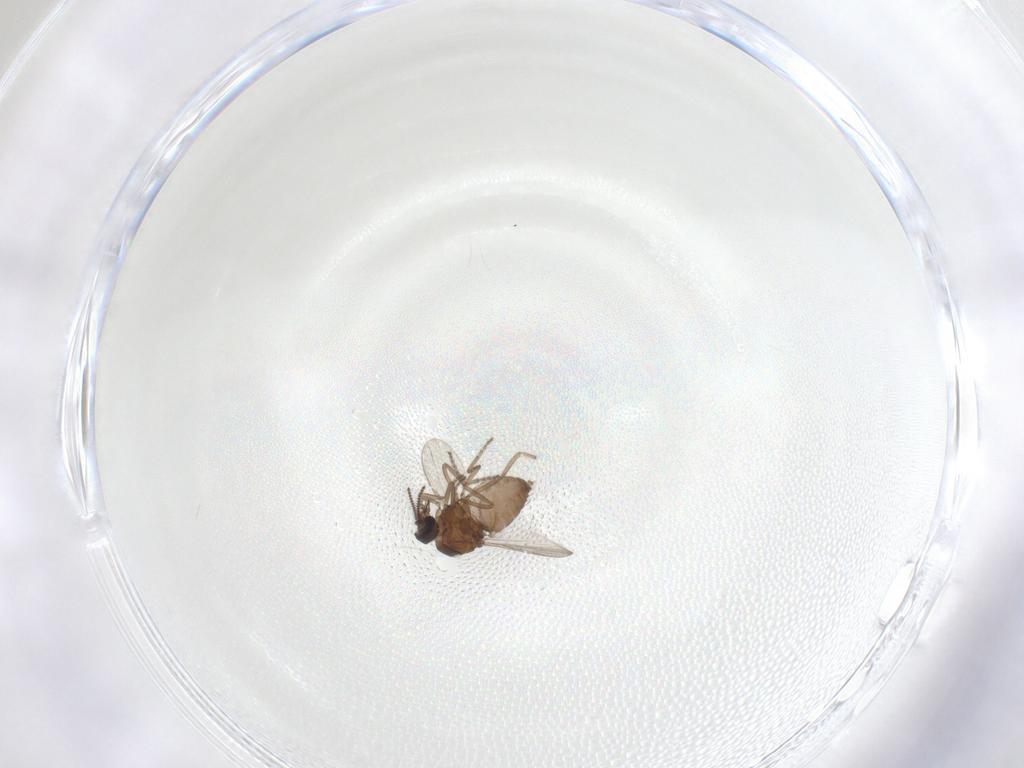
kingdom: Animalia
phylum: Arthropoda
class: Insecta
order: Diptera
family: Ceratopogonidae
